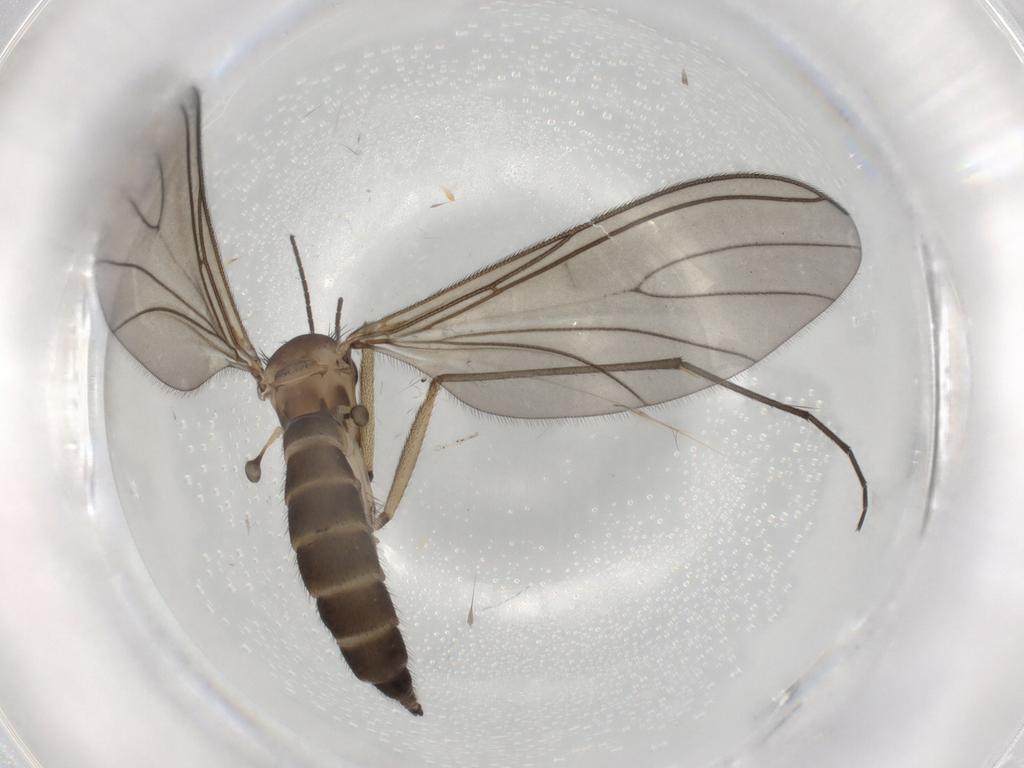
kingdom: Animalia
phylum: Arthropoda
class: Insecta
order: Diptera
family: Sciaridae
